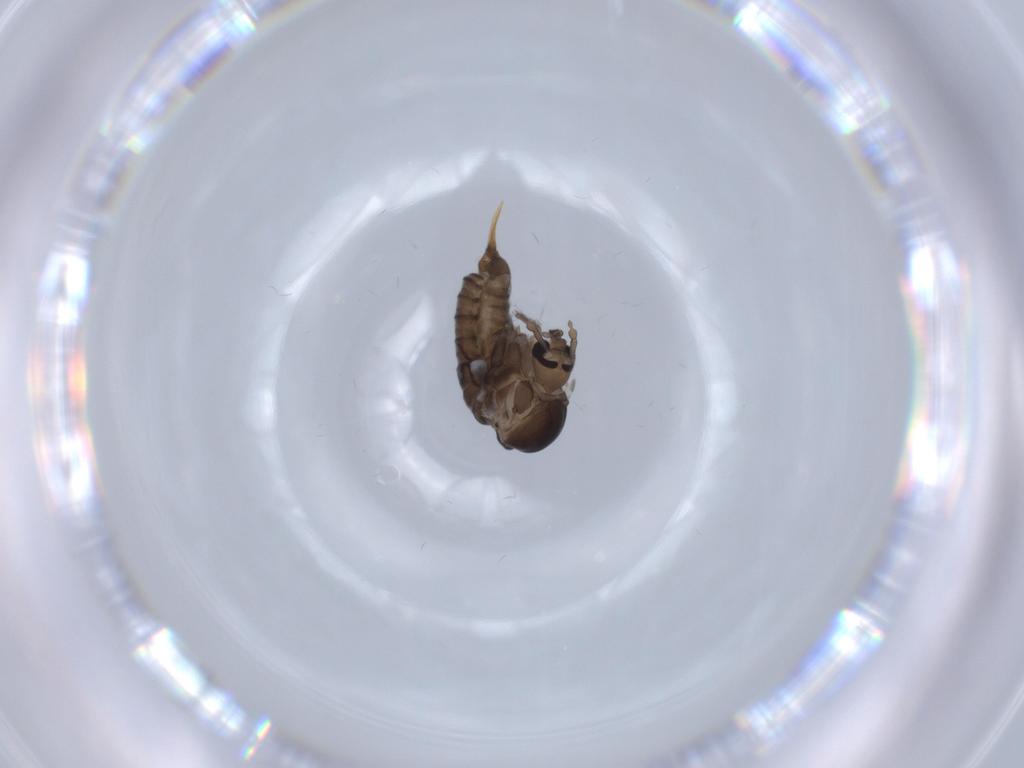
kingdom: Animalia
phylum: Arthropoda
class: Insecta
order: Diptera
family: Psychodidae
